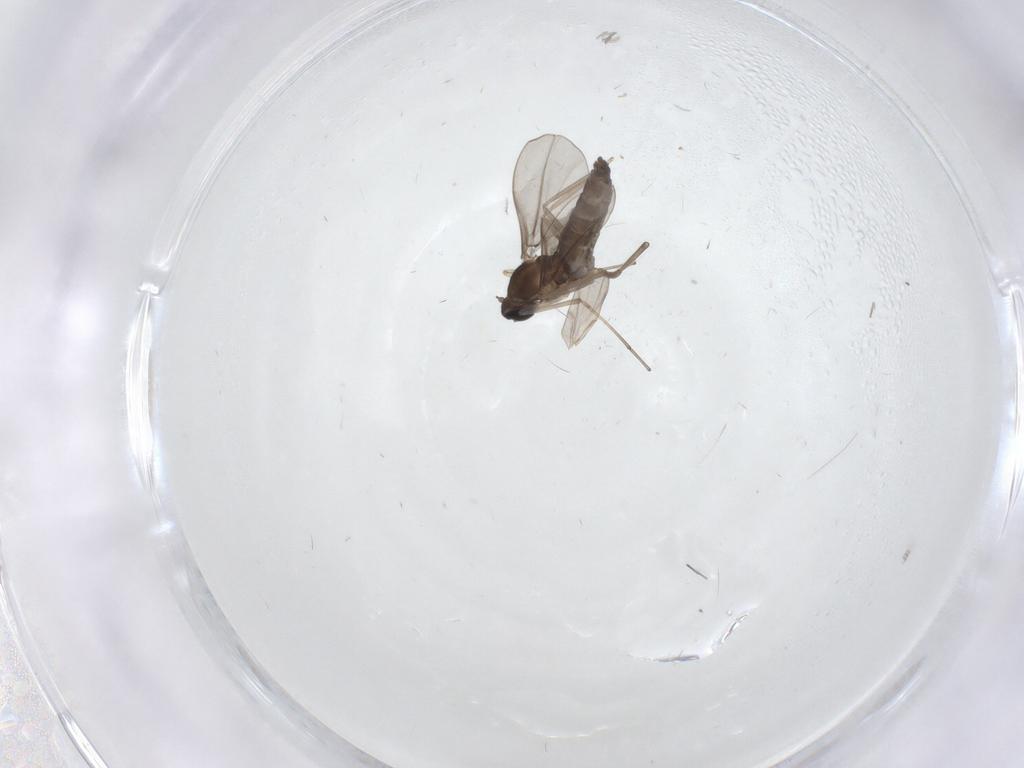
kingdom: Animalia
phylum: Arthropoda
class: Insecta
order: Diptera
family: Cecidomyiidae
